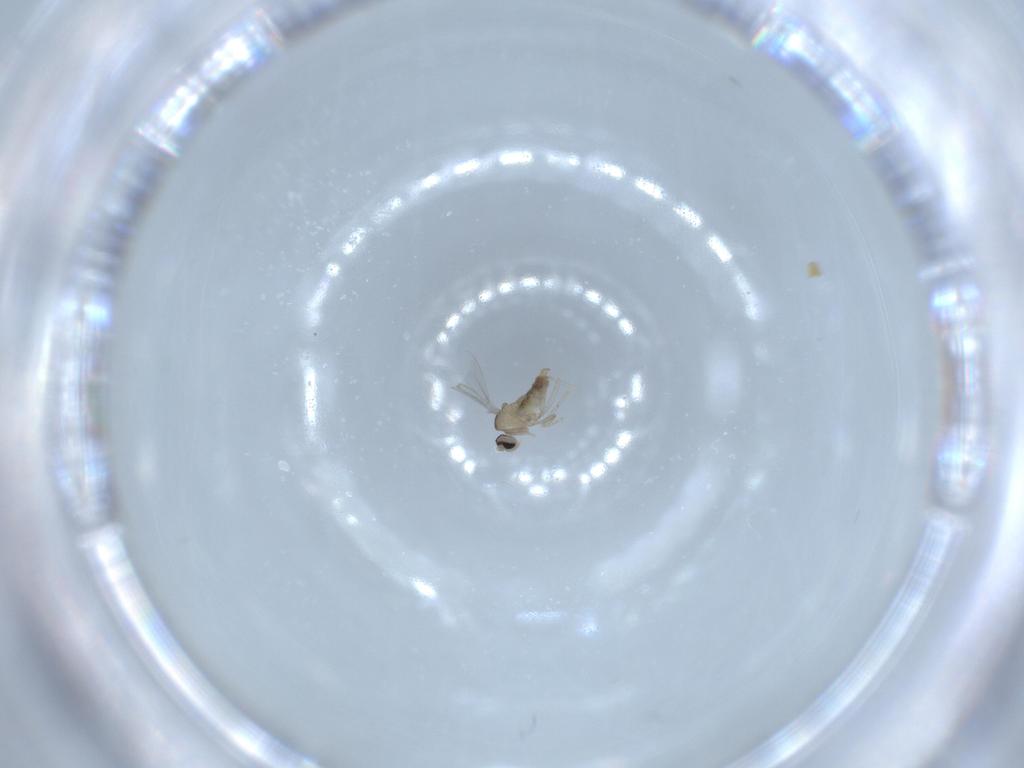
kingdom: Animalia
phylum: Arthropoda
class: Insecta
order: Diptera
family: Cecidomyiidae
